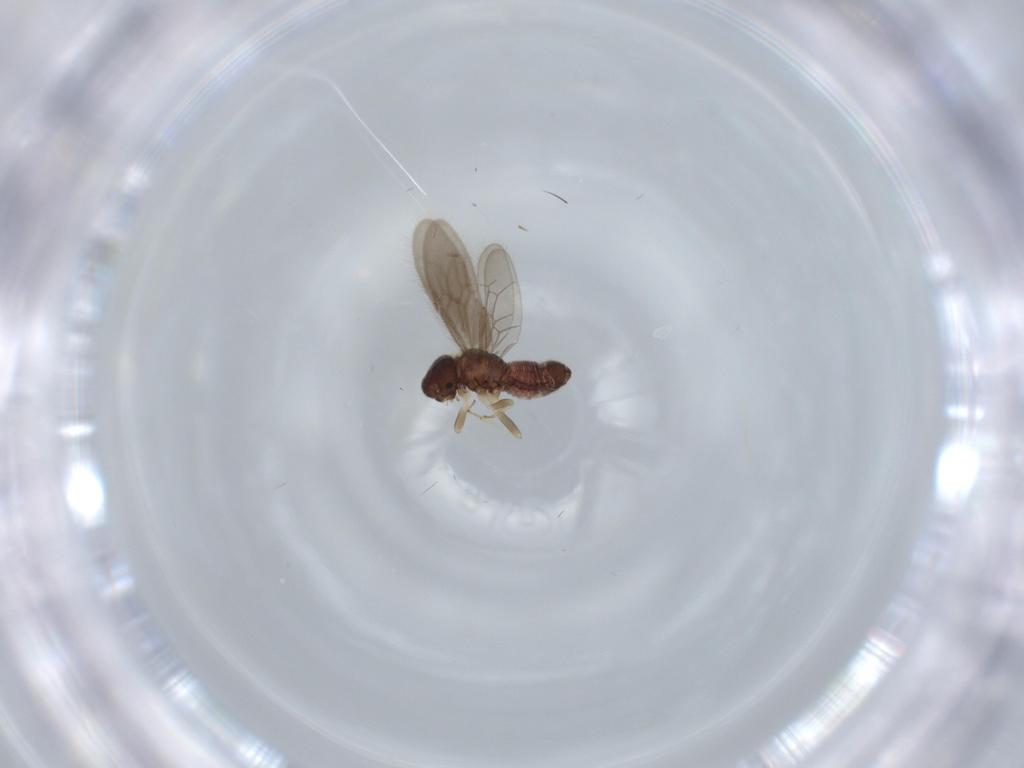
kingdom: Animalia
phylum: Arthropoda
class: Insecta
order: Psocodea
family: Archipsocidae
